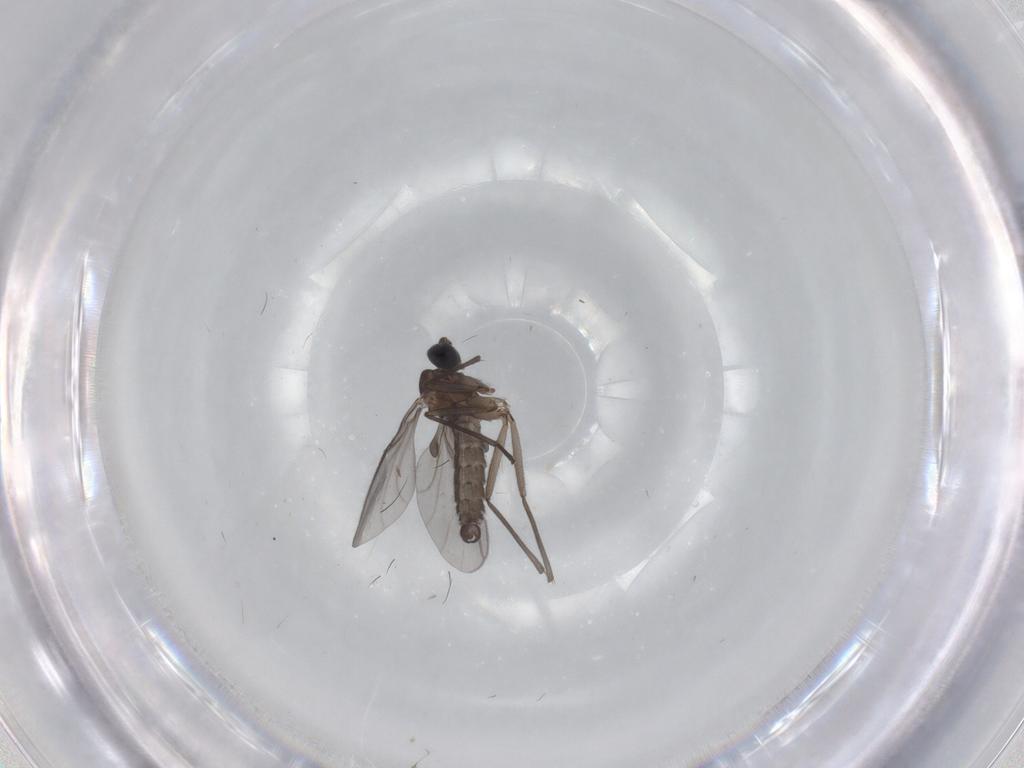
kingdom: Animalia
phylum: Arthropoda
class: Insecta
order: Diptera
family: Sciaridae
